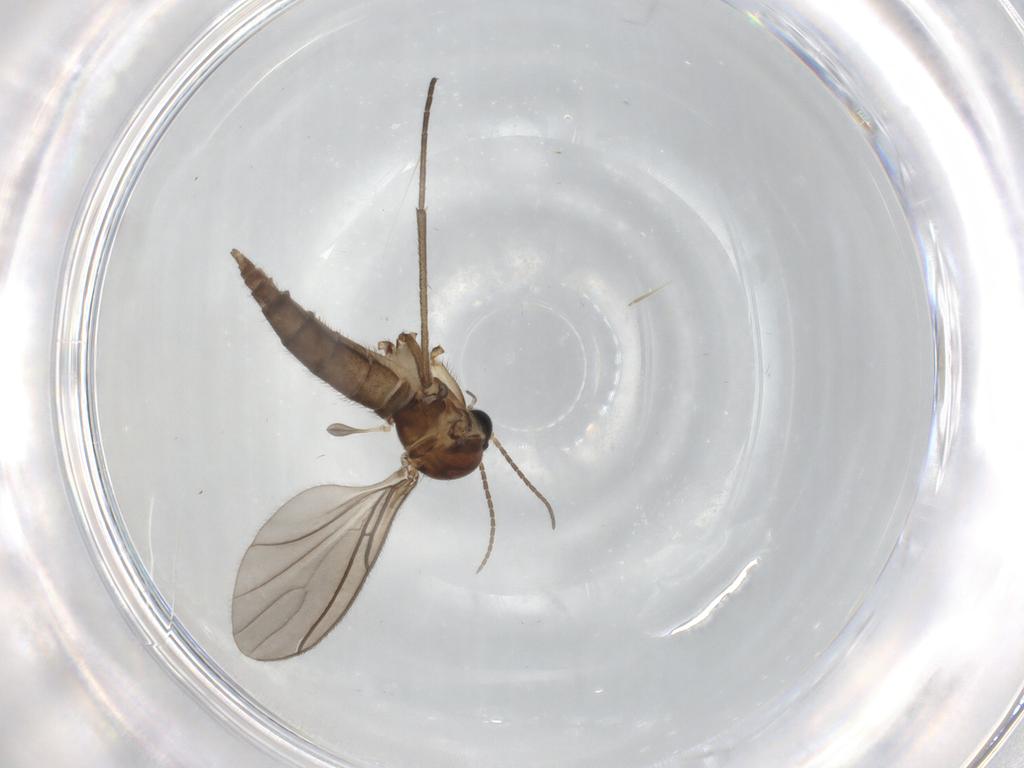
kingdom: Animalia
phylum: Arthropoda
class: Insecta
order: Diptera
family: Sciaridae
